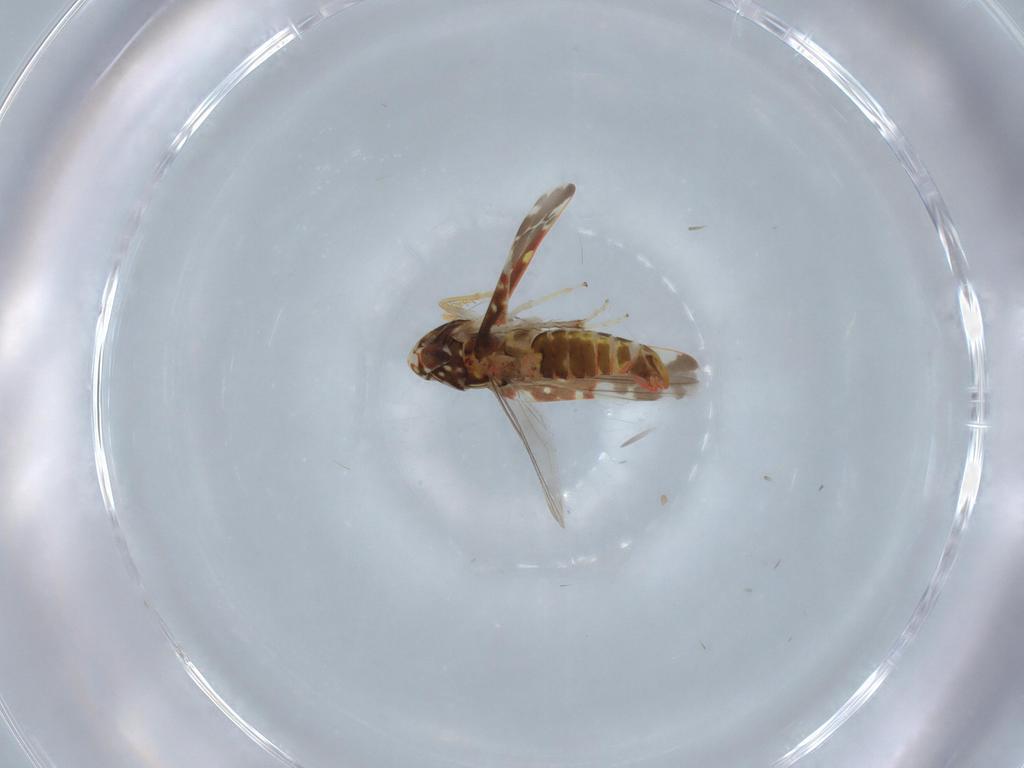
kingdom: Animalia
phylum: Arthropoda
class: Insecta
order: Hemiptera
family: Cicadellidae
